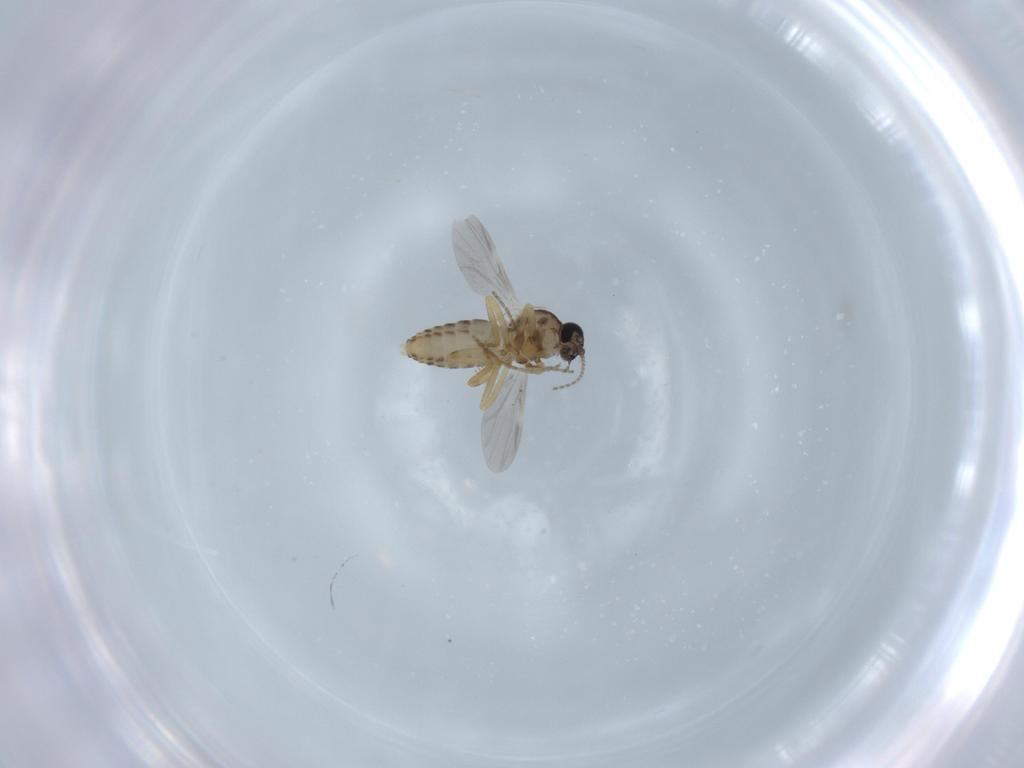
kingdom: Animalia
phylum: Arthropoda
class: Insecta
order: Diptera
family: Ceratopogonidae
